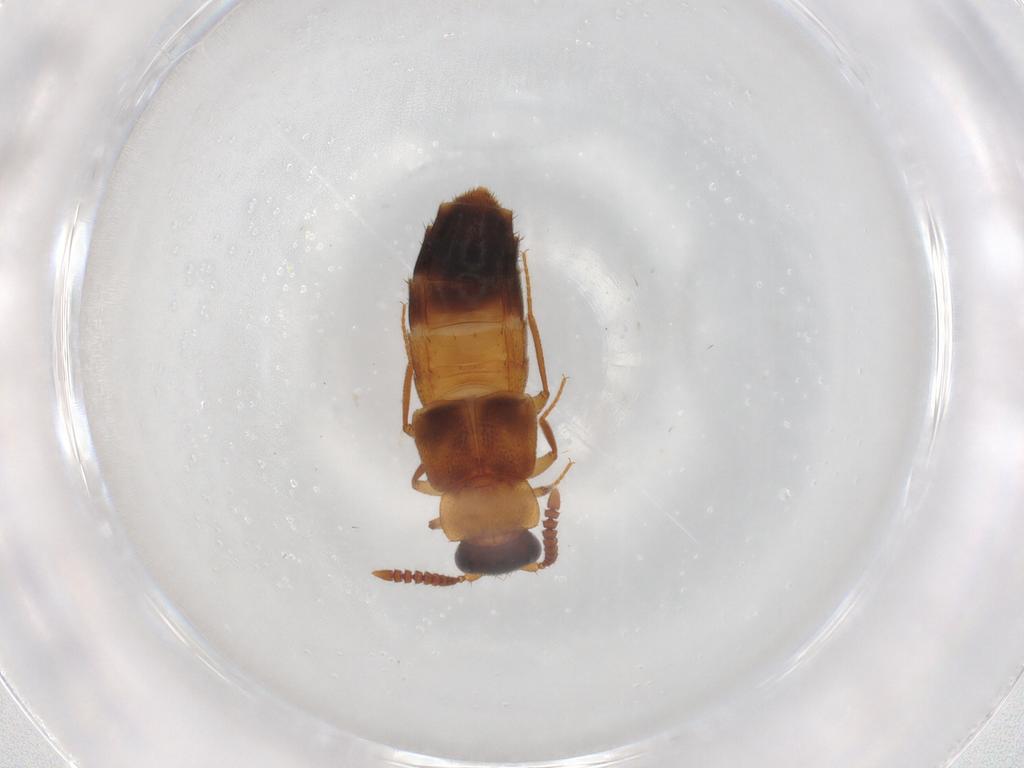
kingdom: Animalia
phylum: Arthropoda
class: Insecta
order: Coleoptera
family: Staphylinidae
